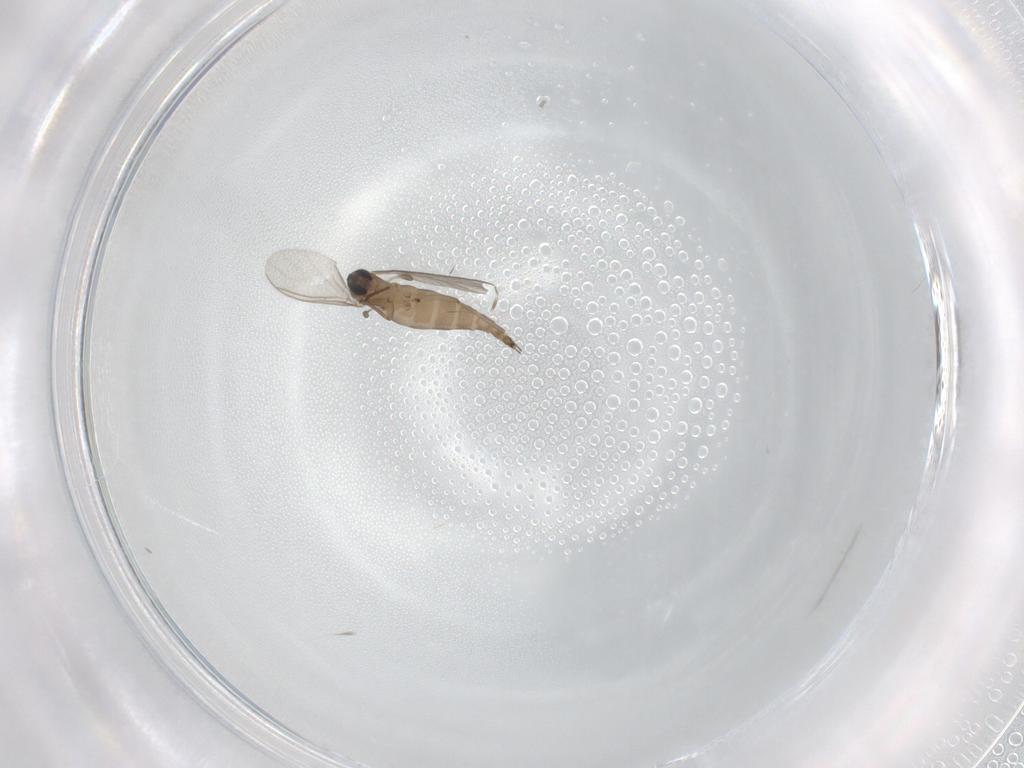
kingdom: Animalia
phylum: Arthropoda
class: Insecta
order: Diptera
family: Sciaridae
